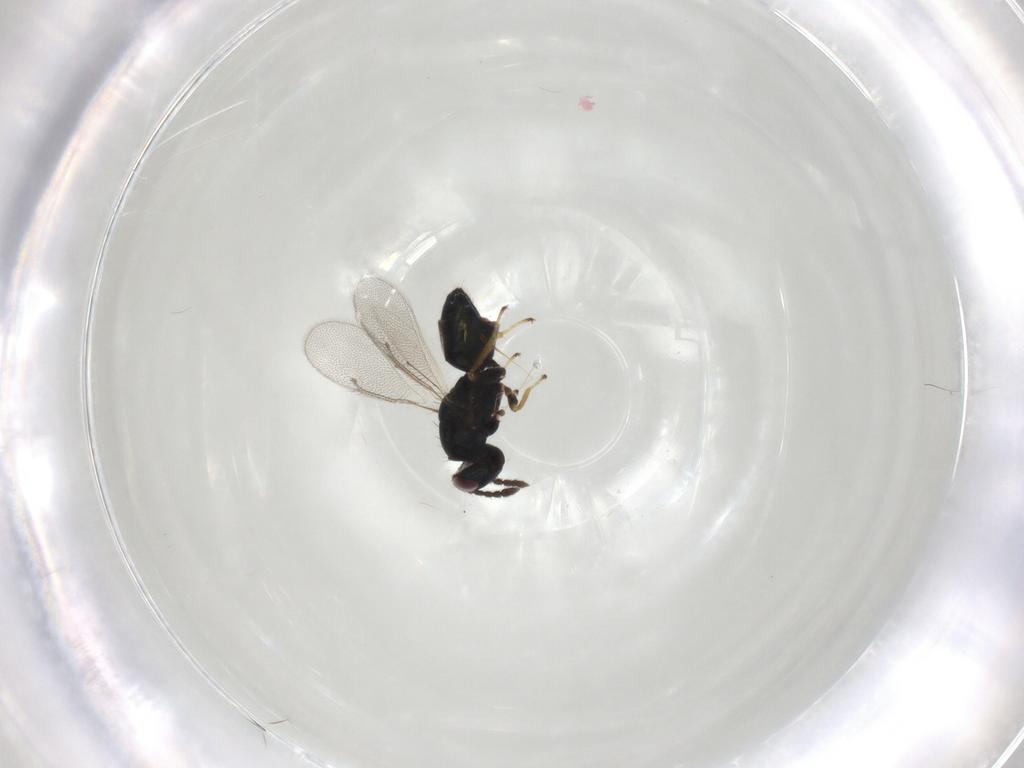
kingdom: Animalia
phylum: Arthropoda
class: Insecta
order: Hymenoptera
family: Eulophidae
